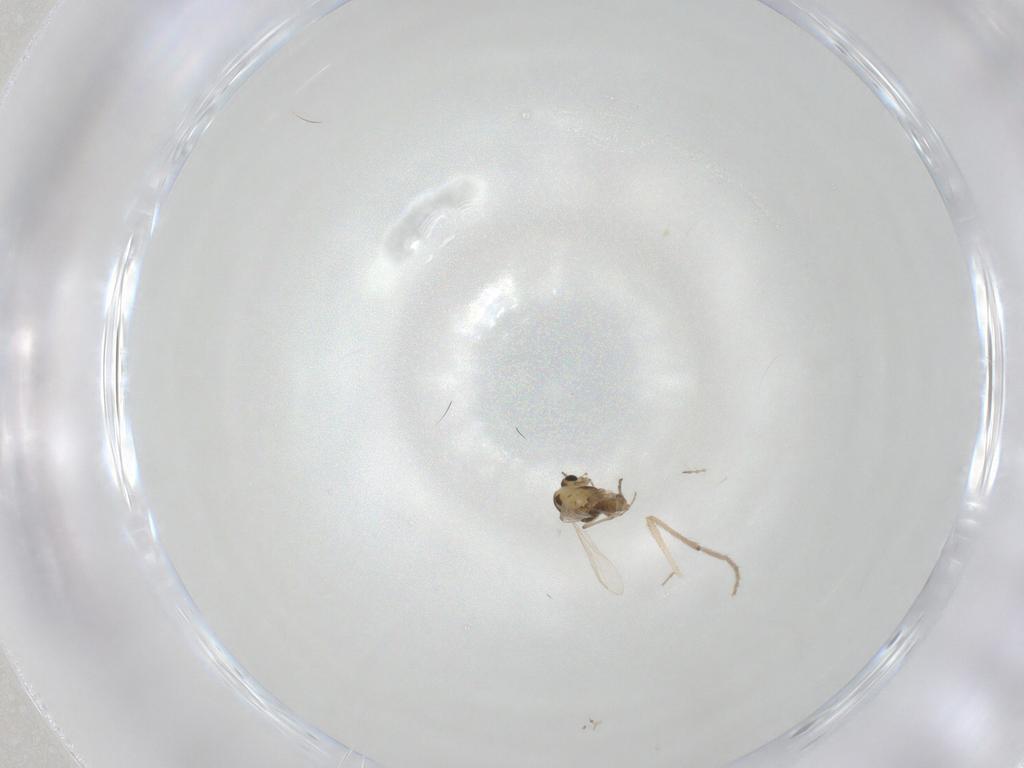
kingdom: Animalia
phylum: Arthropoda
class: Insecta
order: Diptera
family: Chironomidae
